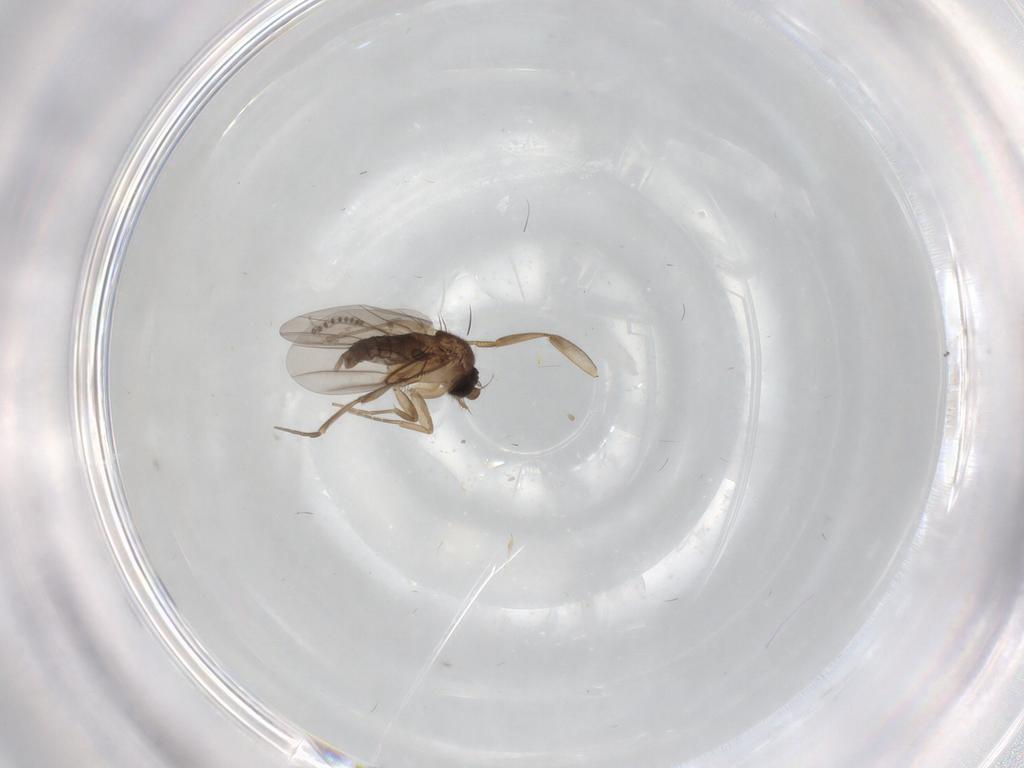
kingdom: Animalia
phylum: Arthropoda
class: Insecta
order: Diptera
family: Sciaridae
